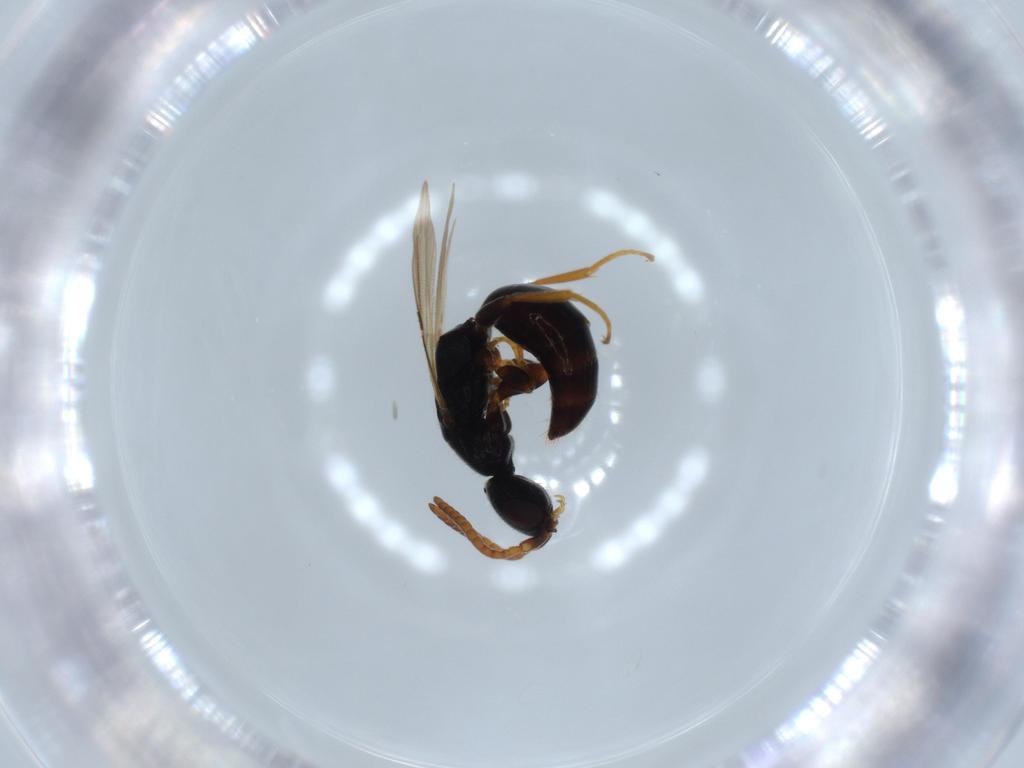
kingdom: Animalia
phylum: Arthropoda
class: Insecta
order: Hymenoptera
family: Bethylidae
